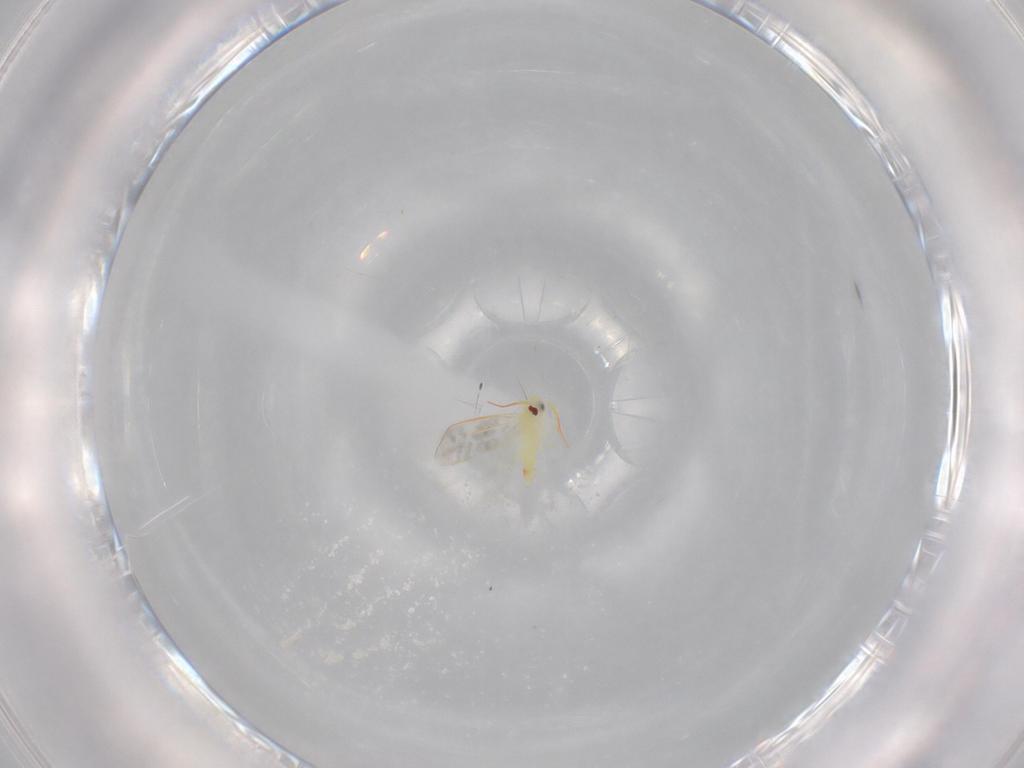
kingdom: Animalia
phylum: Arthropoda
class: Insecta
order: Hemiptera
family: Aleyrodidae
